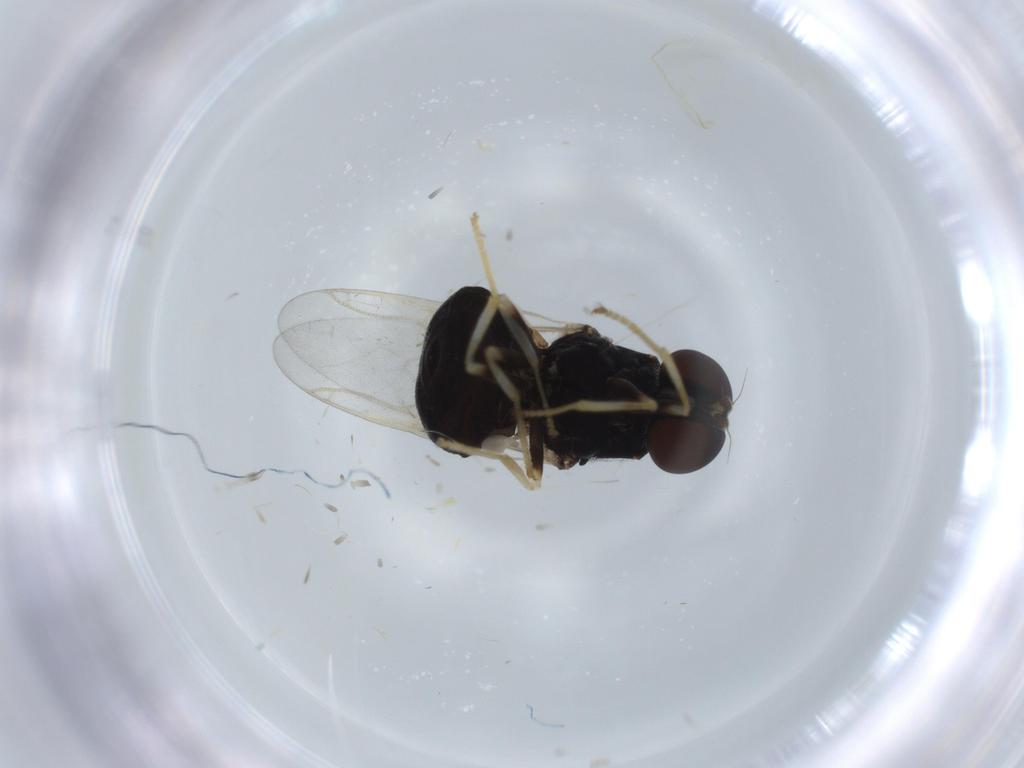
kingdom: Animalia
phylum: Arthropoda
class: Insecta
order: Diptera
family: Stratiomyidae
